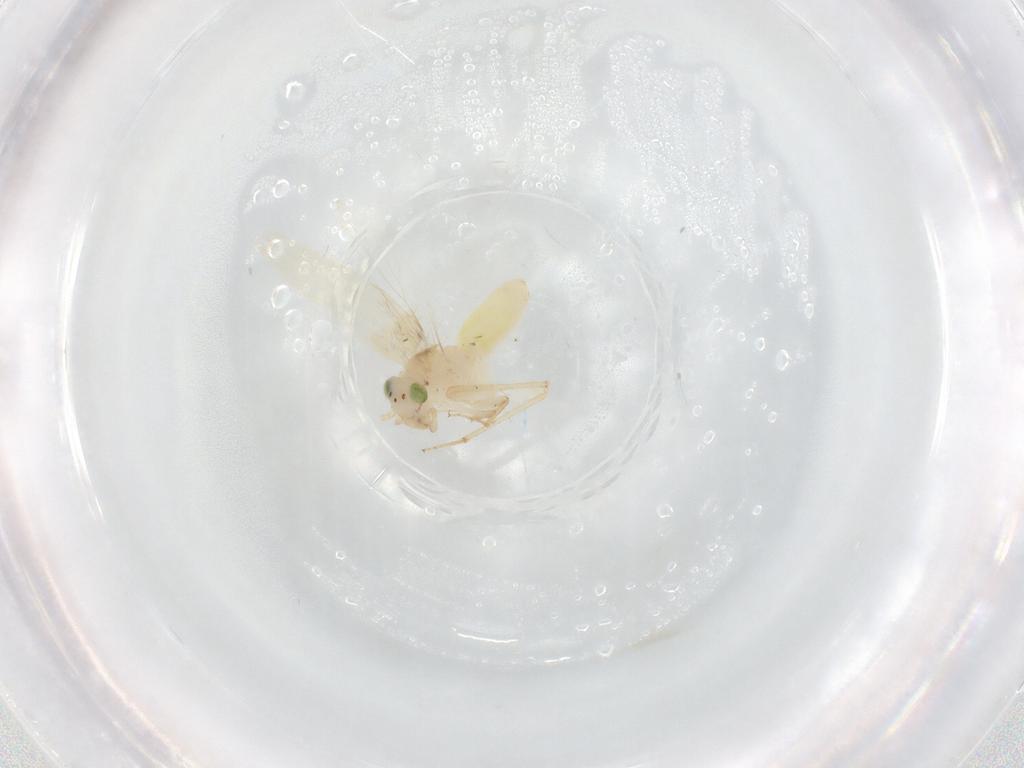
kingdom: Animalia
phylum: Arthropoda
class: Insecta
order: Psocodea
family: Lepidopsocidae
